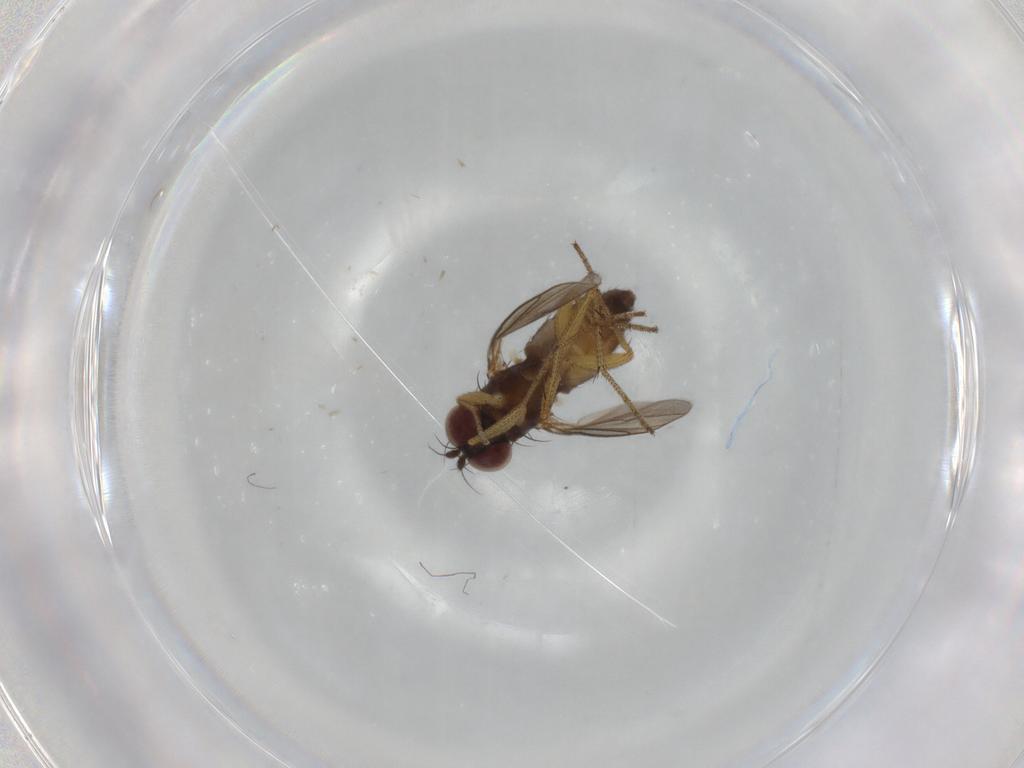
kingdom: Animalia
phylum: Arthropoda
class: Insecta
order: Diptera
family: Dolichopodidae
